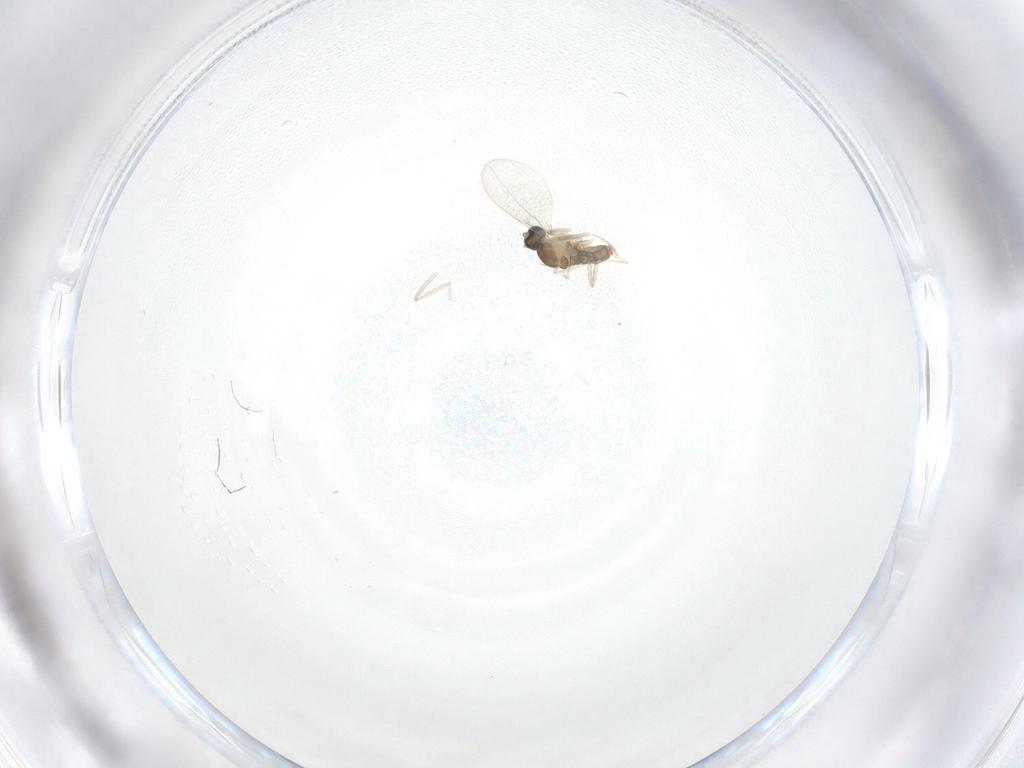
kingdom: Animalia
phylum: Arthropoda
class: Insecta
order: Diptera
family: Cecidomyiidae
